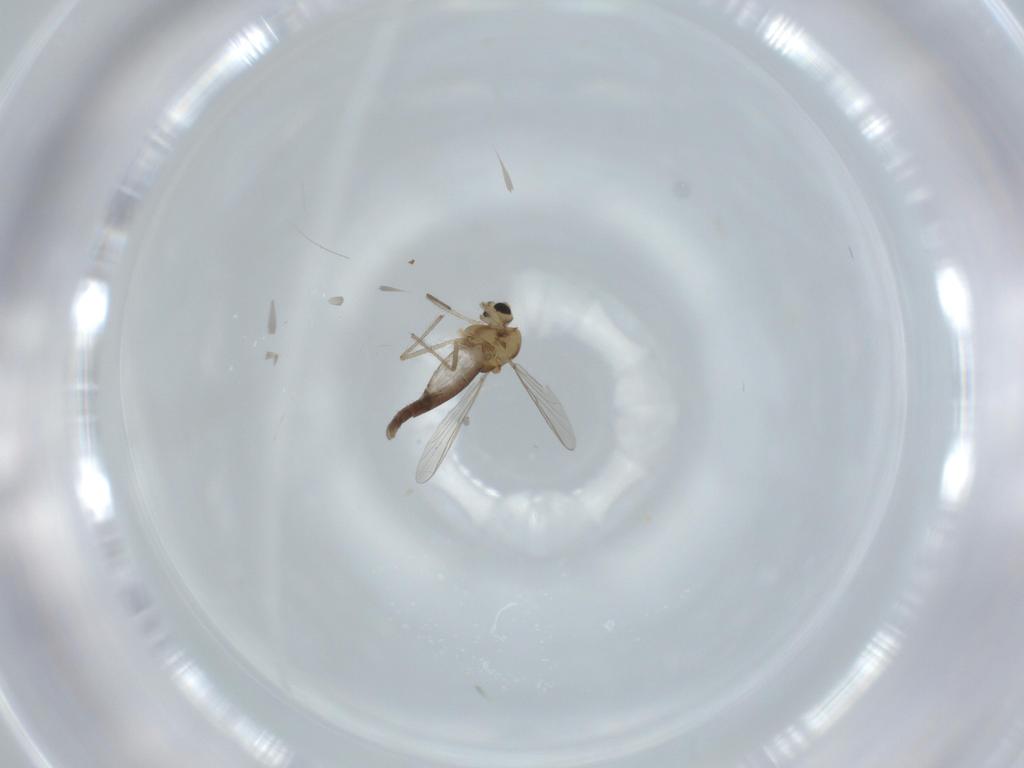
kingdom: Animalia
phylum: Arthropoda
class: Insecta
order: Diptera
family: Chironomidae
